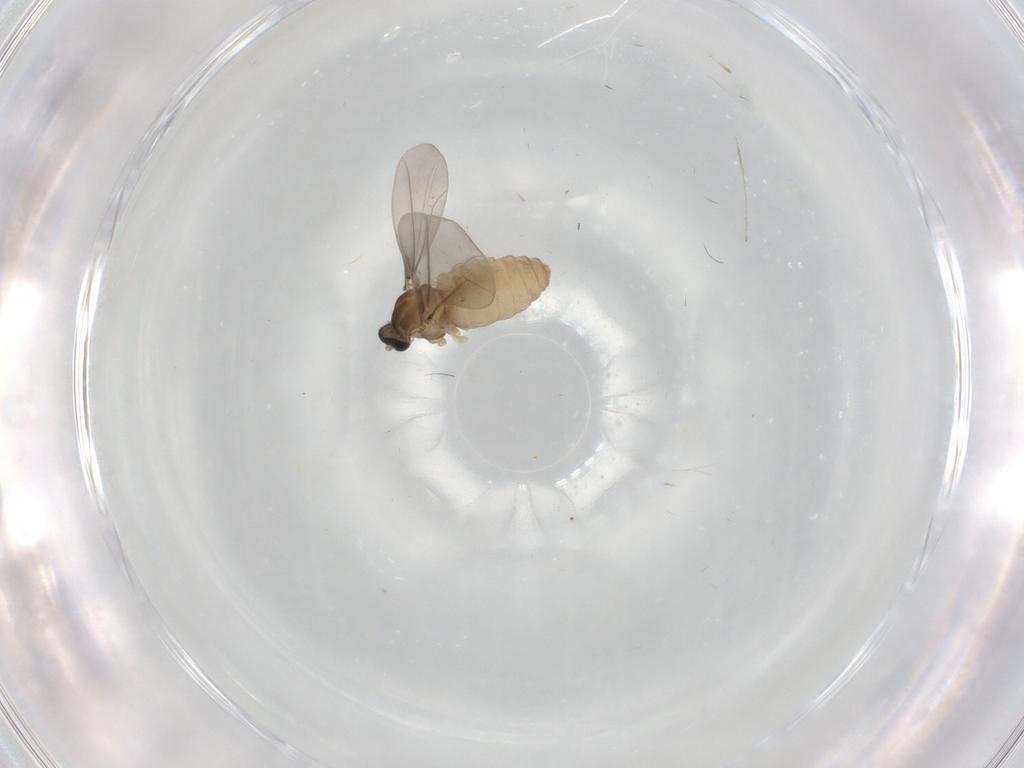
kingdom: Animalia
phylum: Arthropoda
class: Insecta
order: Diptera
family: Cecidomyiidae
